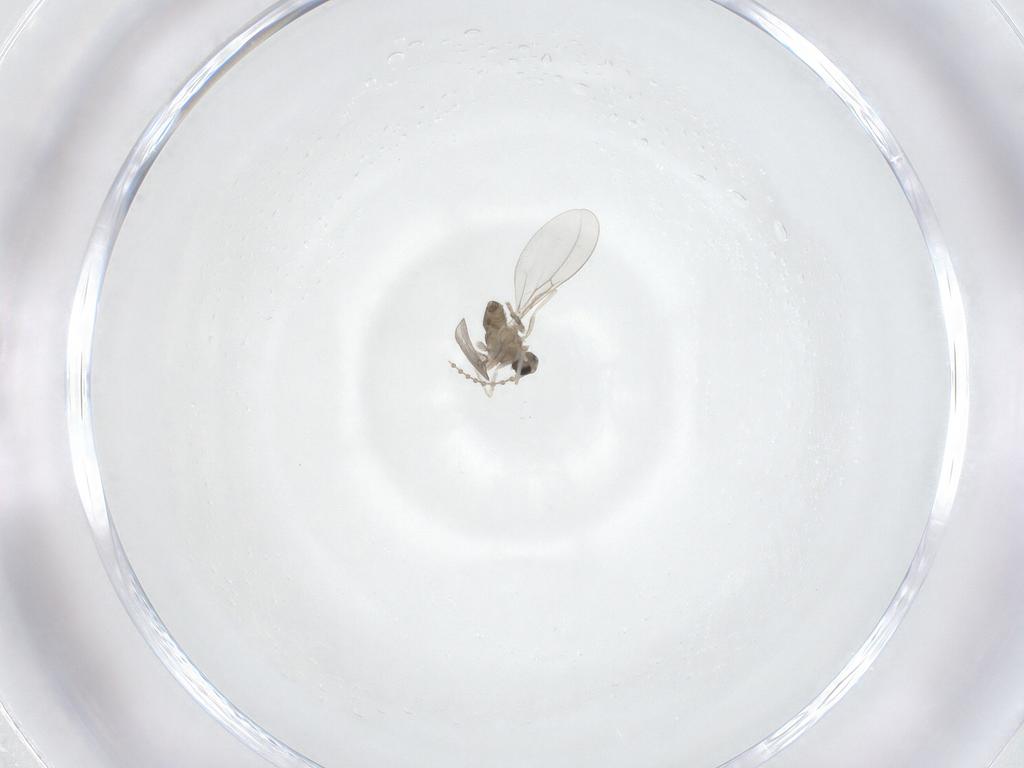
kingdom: Animalia
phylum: Arthropoda
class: Insecta
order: Diptera
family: Cecidomyiidae
